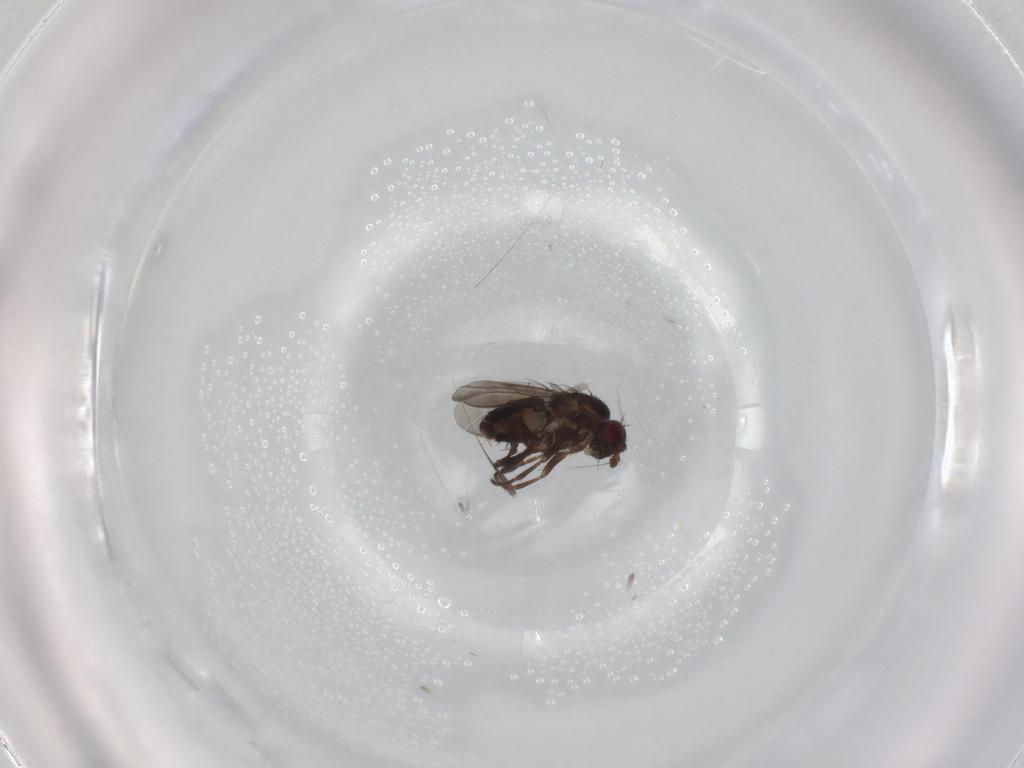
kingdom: Animalia
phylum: Arthropoda
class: Insecta
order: Diptera
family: Sphaeroceridae
